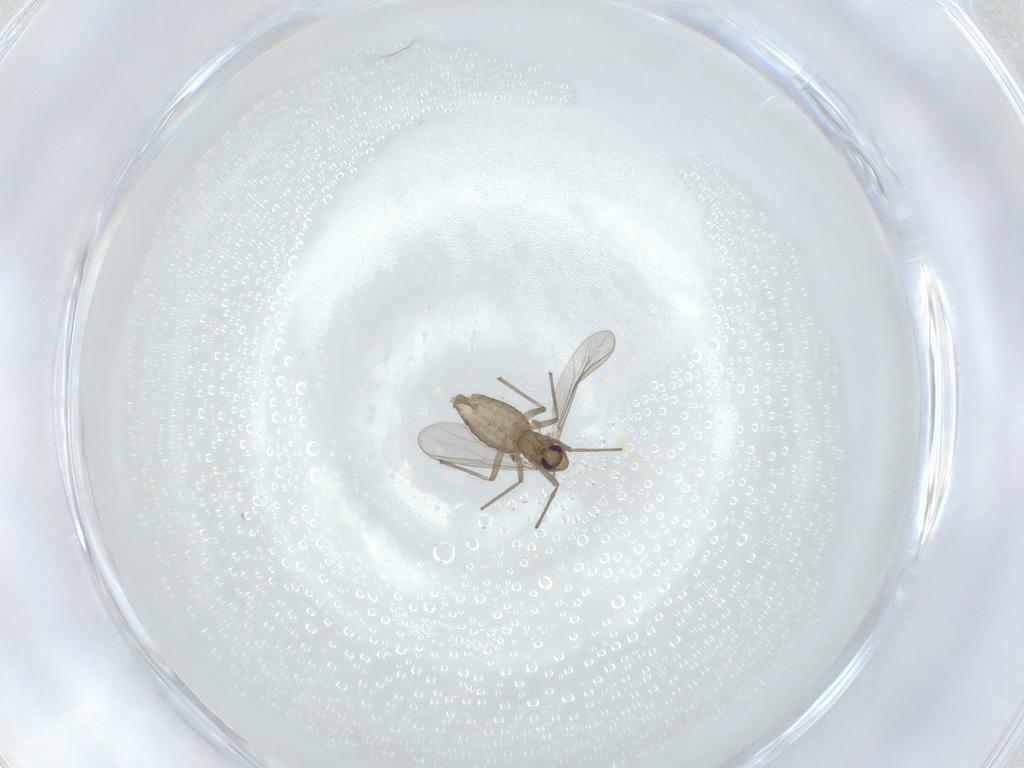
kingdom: Animalia
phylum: Arthropoda
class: Insecta
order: Diptera
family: Chironomidae
